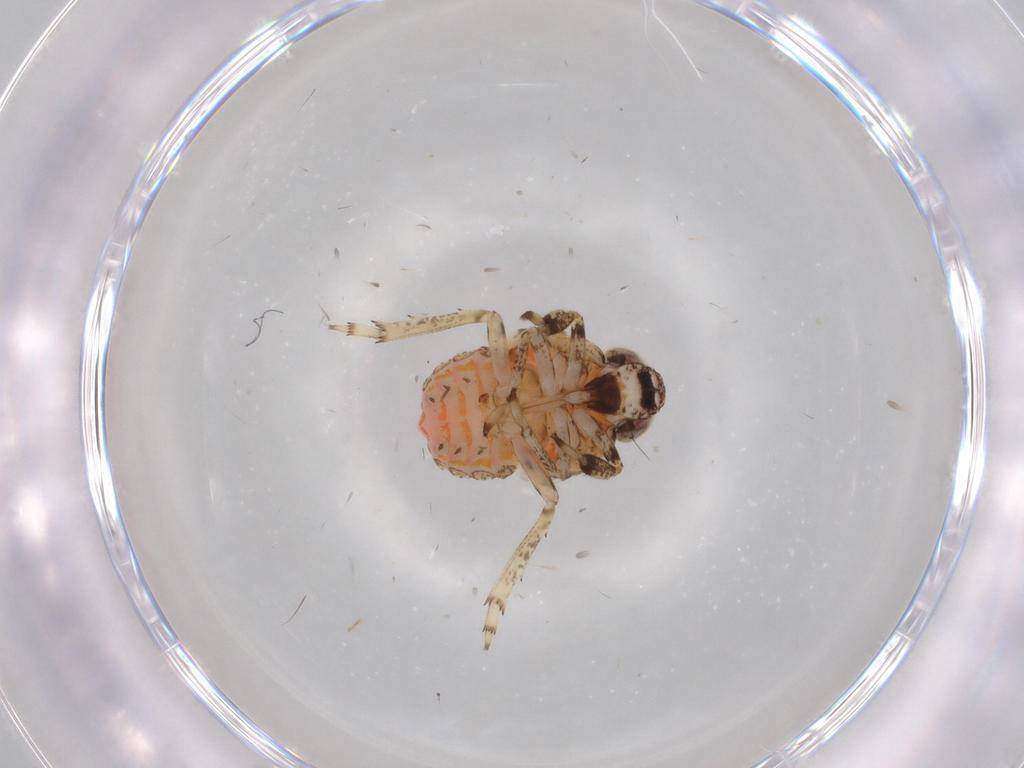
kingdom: Animalia
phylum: Arthropoda
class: Insecta
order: Hemiptera
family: Issidae
